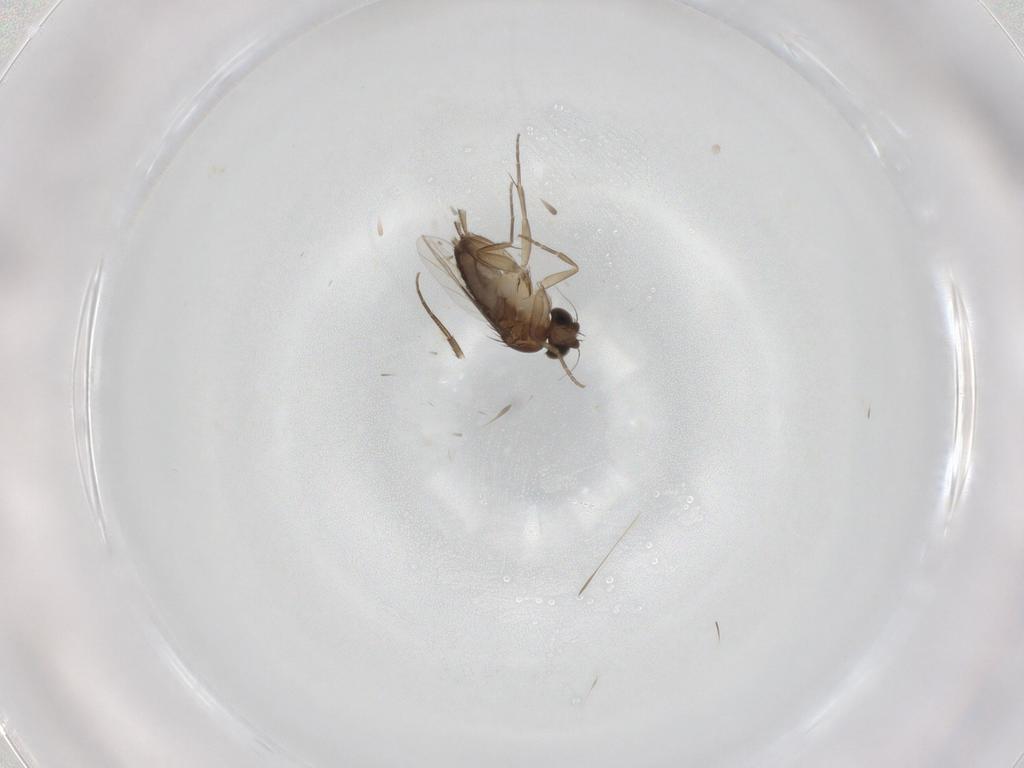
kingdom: Animalia
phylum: Arthropoda
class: Insecta
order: Diptera
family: Phoridae
